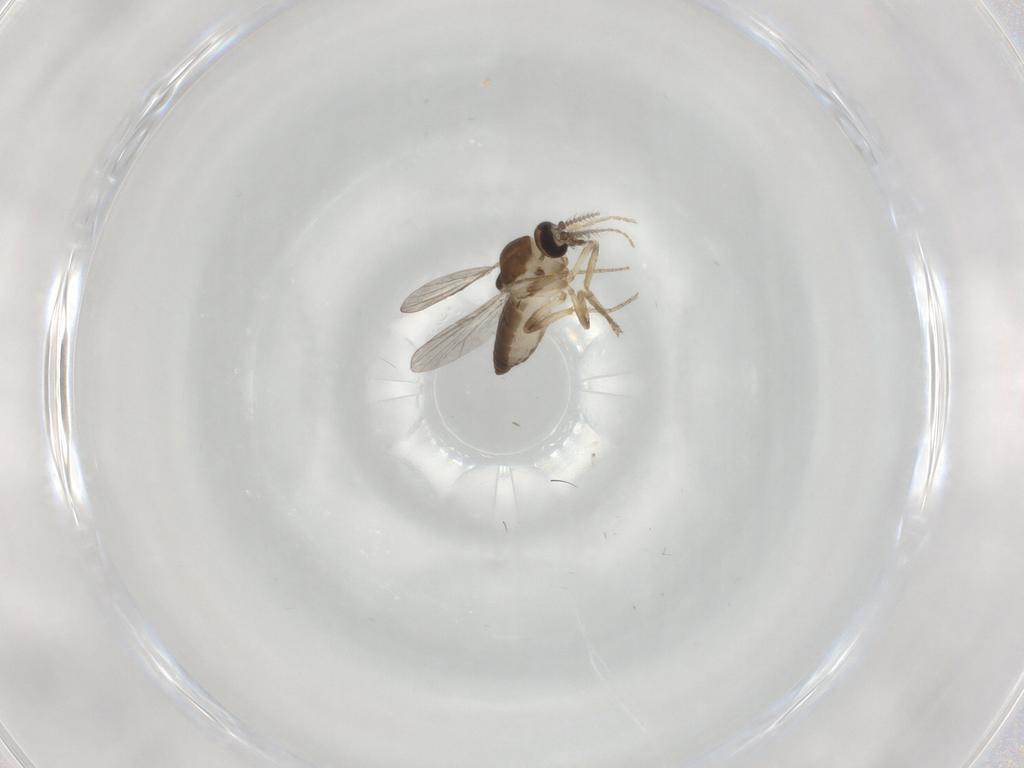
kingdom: Animalia
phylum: Arthropoda
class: Insecta
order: Diptera
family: Ceratopogonidae
